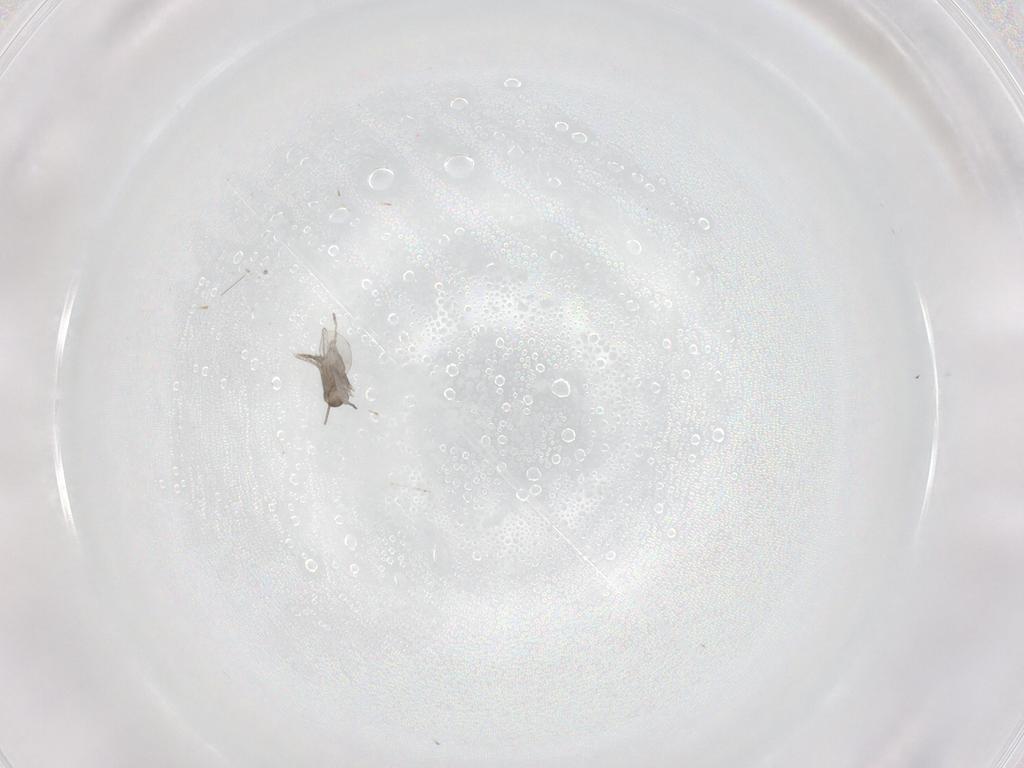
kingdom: Animalia
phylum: Arthropoda
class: Insecta
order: Diptera
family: Cecidomyiidae
